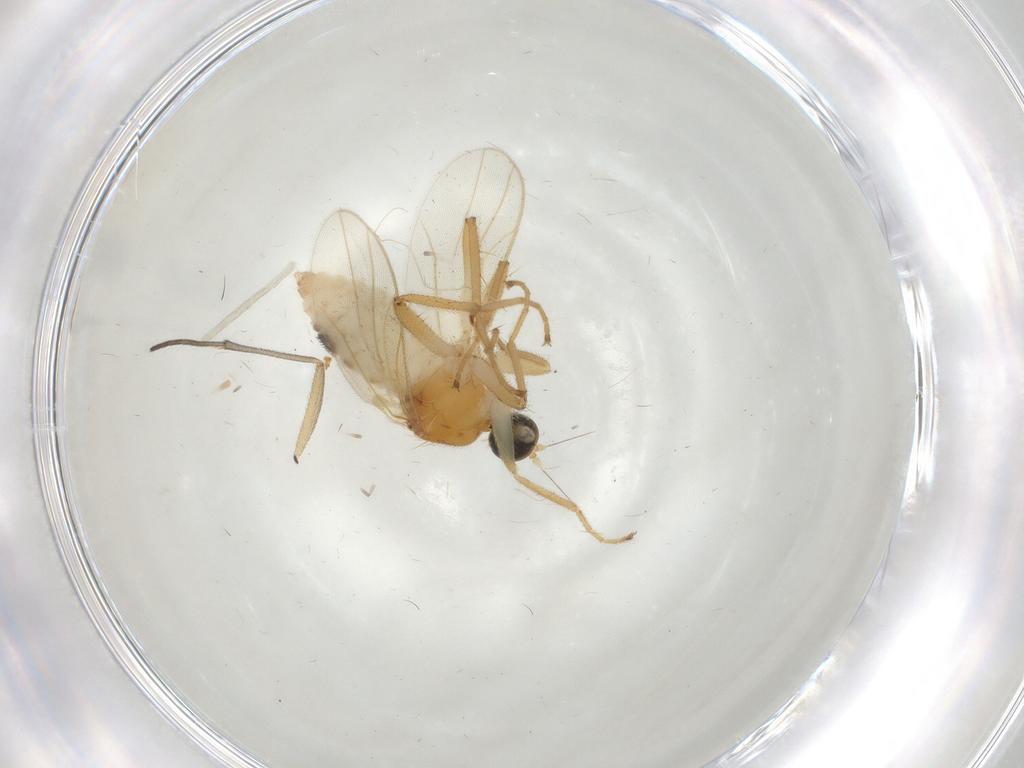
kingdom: Animalia
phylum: Arthropoda
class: Insecta
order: Diptera
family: Hybotidae
